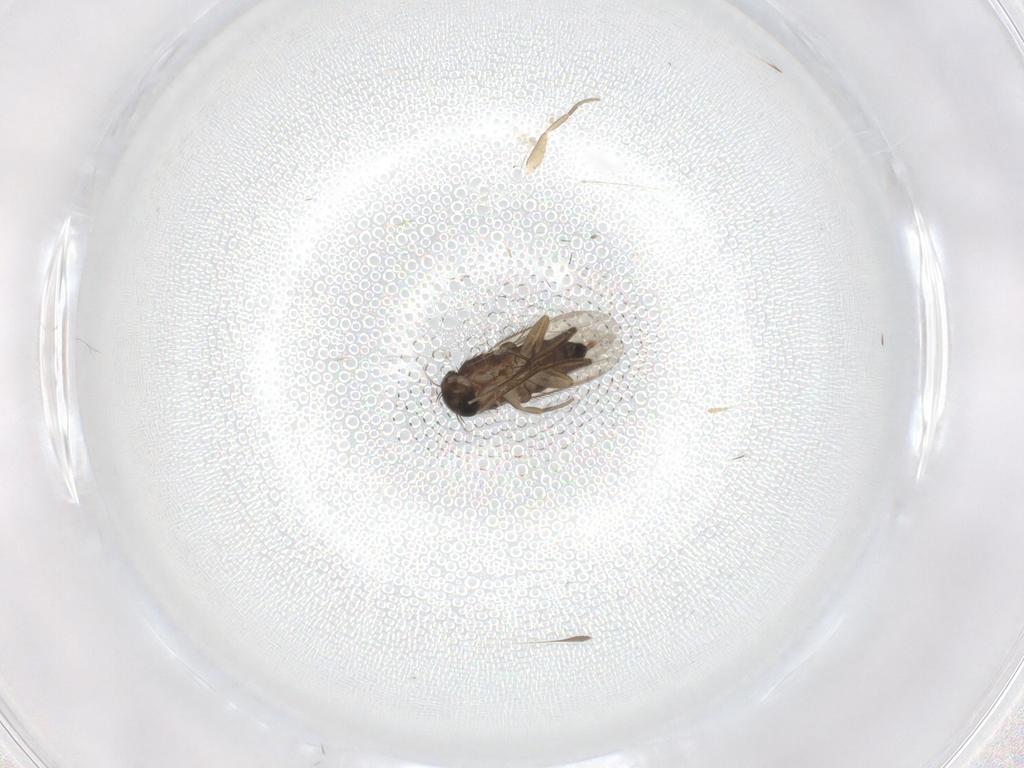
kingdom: Animalia
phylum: Arthropoda
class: Insecta
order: Diptera
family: Phoridae
